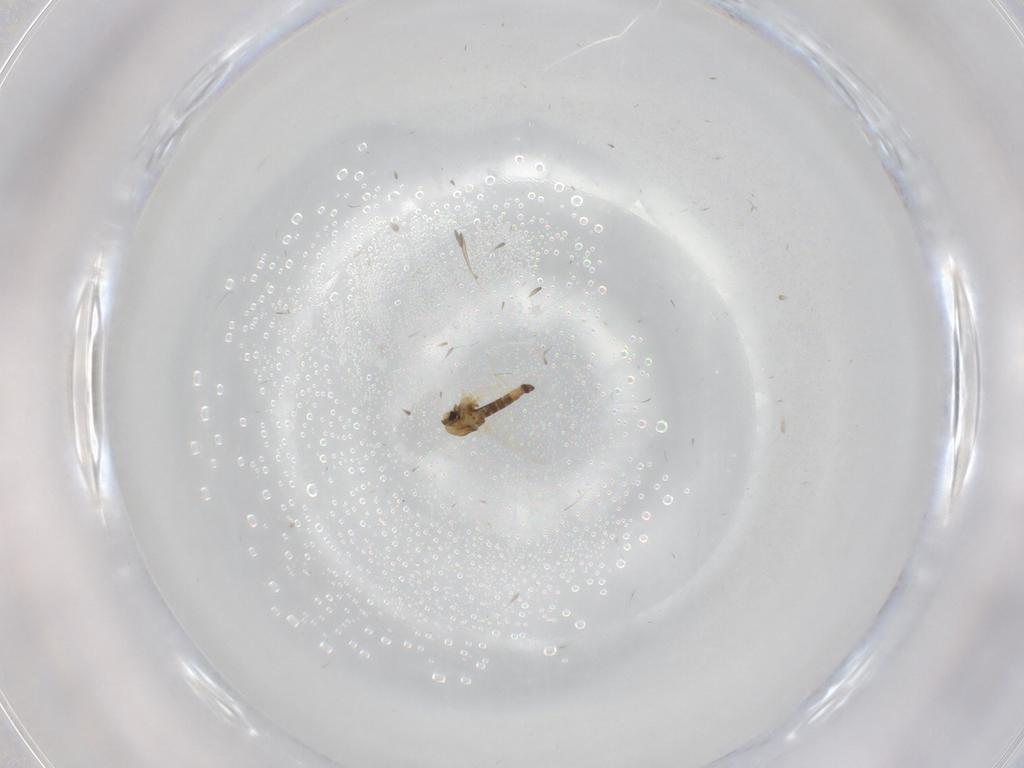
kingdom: Animalia
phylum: Arthropoda
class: Insecta
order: Diptera
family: Chironomidae
